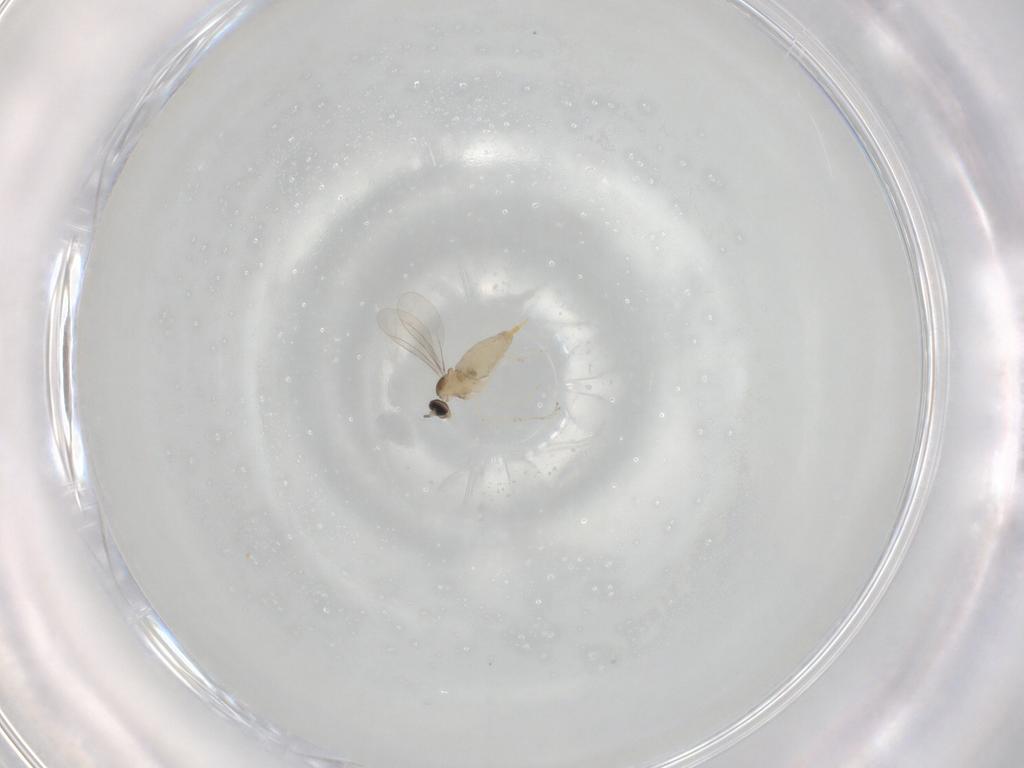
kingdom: Animalia
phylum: Arthropoda
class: Insecta
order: Diptera
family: Cecidomyiidae
